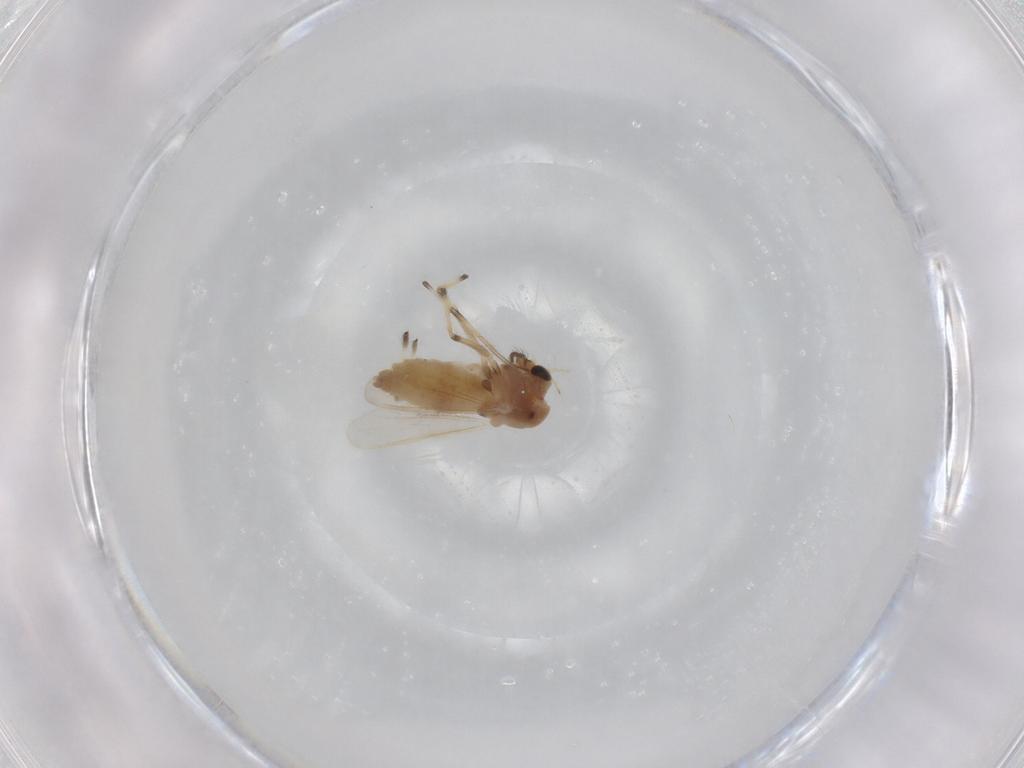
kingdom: Animalia
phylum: Arthropoda
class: Insecta
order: Diptera
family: Chironomidae
